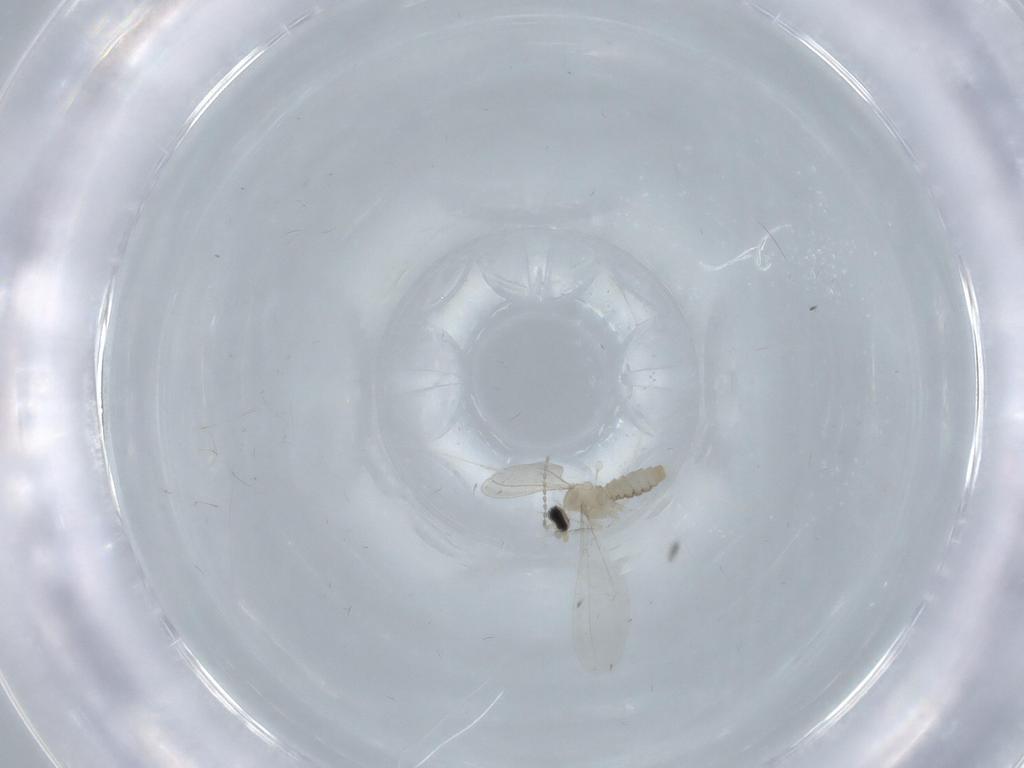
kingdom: Animalia
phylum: Arthropoda
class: Insecta
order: Diptera
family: Cecidomyiidae
